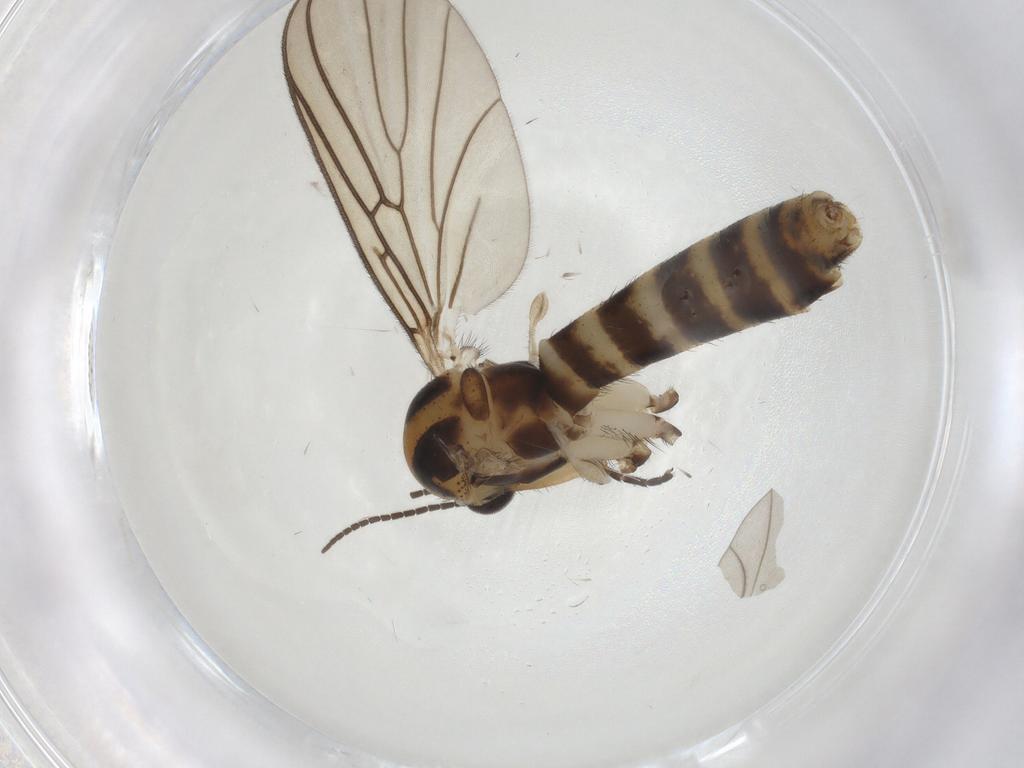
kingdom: Animalia
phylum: Arthropoda
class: Insecta
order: Diptera
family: Mycetophilidae
